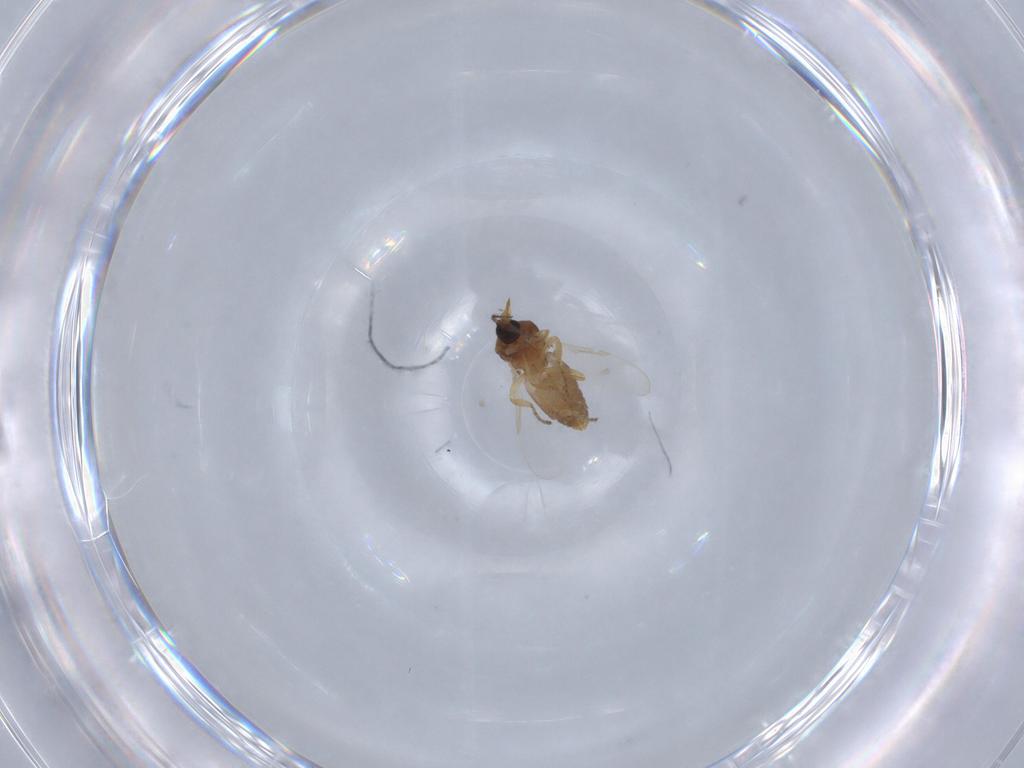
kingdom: Animalia
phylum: Arthropoda
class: Insecta
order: Diptera
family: Ceratopogonidae
